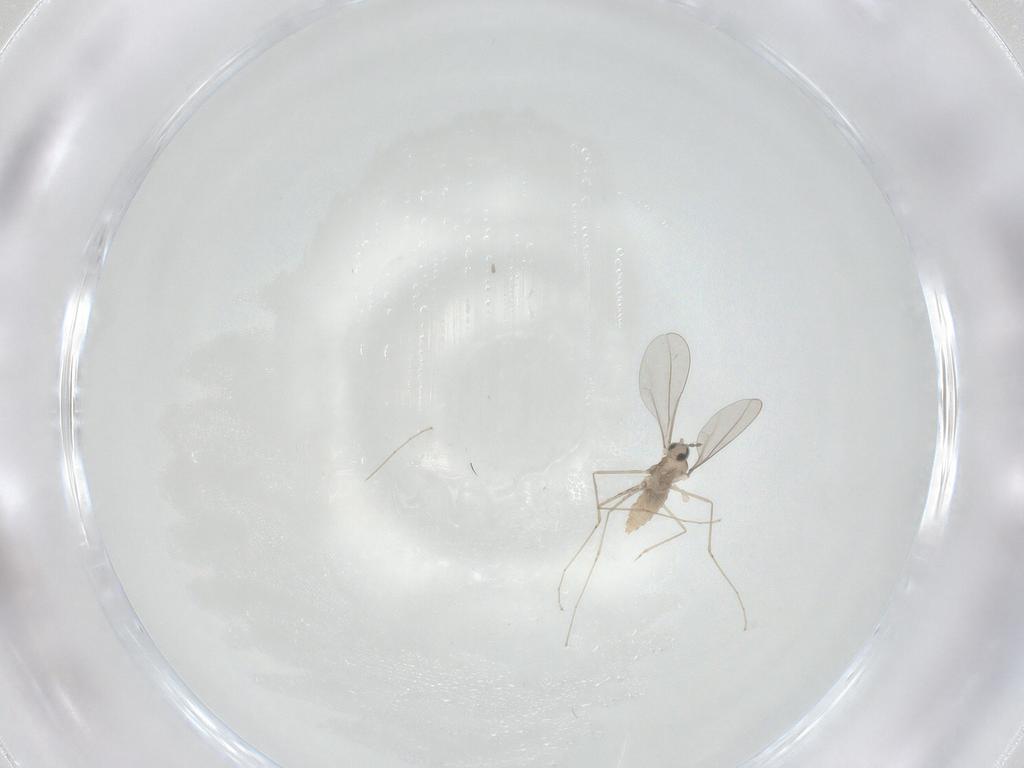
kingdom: Animalia
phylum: Arthropoda
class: Insecta
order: Diptera
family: Cecidomyiidae
